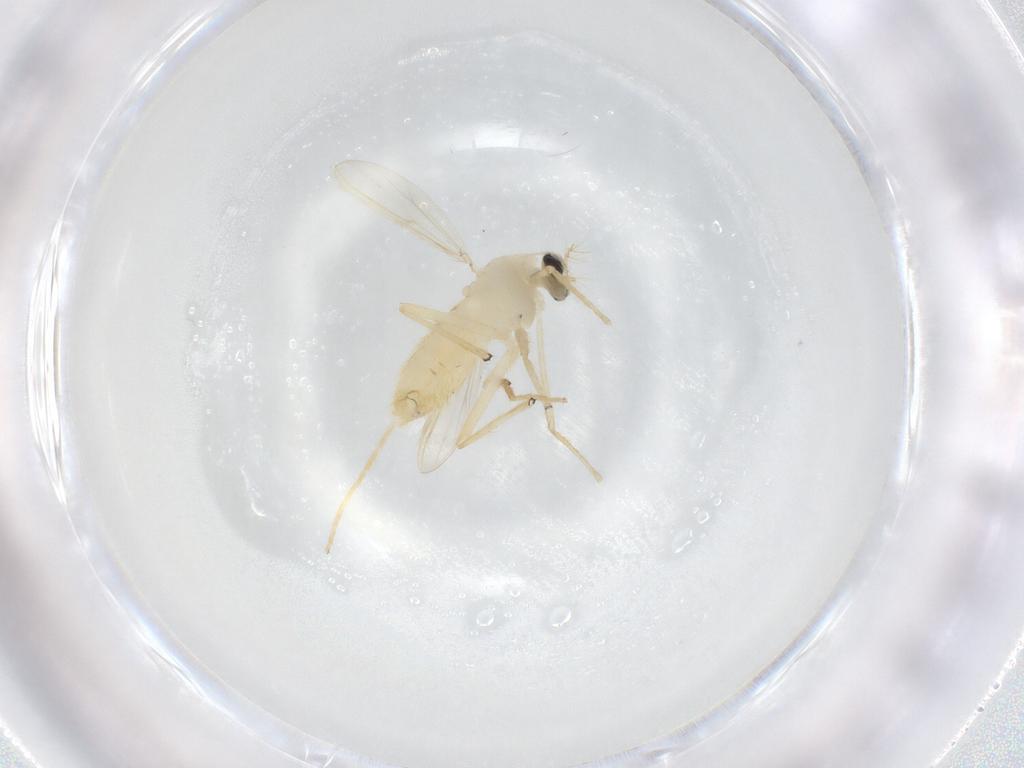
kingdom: Animalia
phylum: Arthropoda
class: Insecta
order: Diptera
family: Chironomidae
